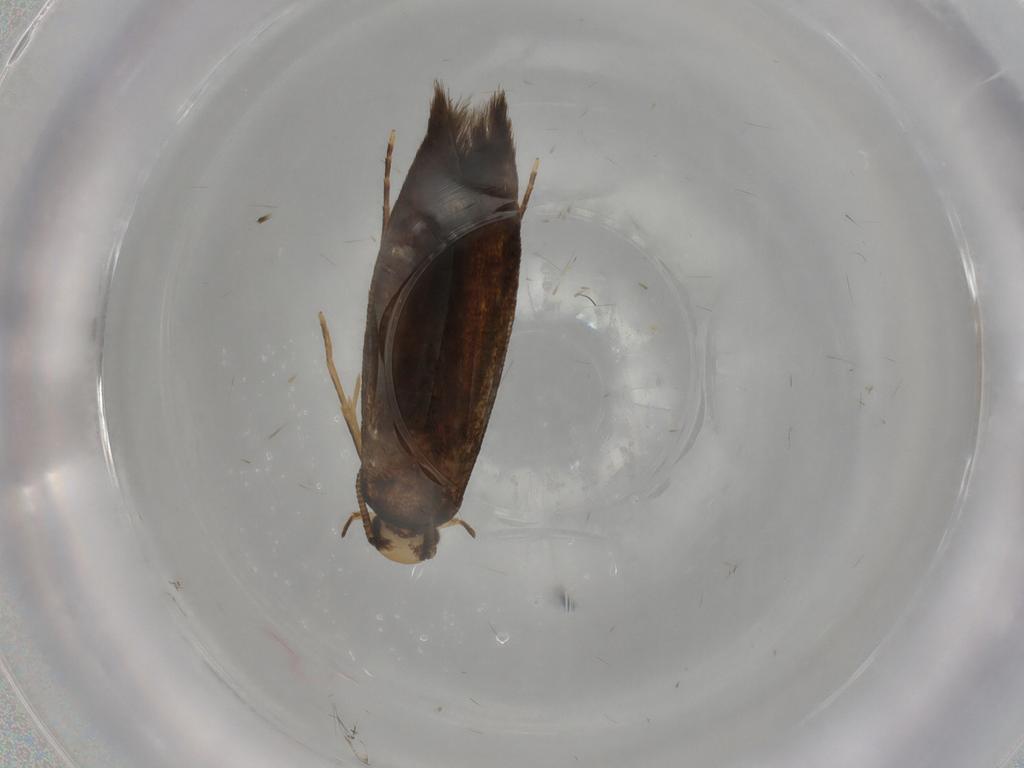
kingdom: Animalia
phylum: Arthropoda
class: Insecta
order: Lepidoptera
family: Tineidae
